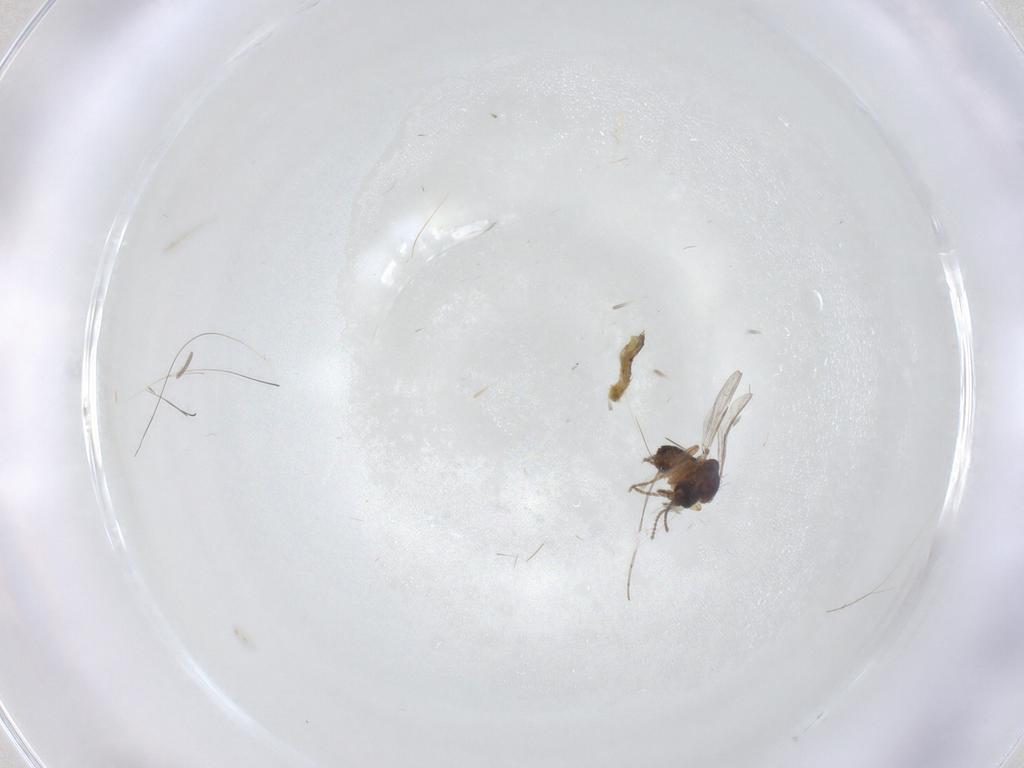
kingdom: Animalia
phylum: Arthropoda
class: Insecta
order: Diptera
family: Cecidomyiidae
